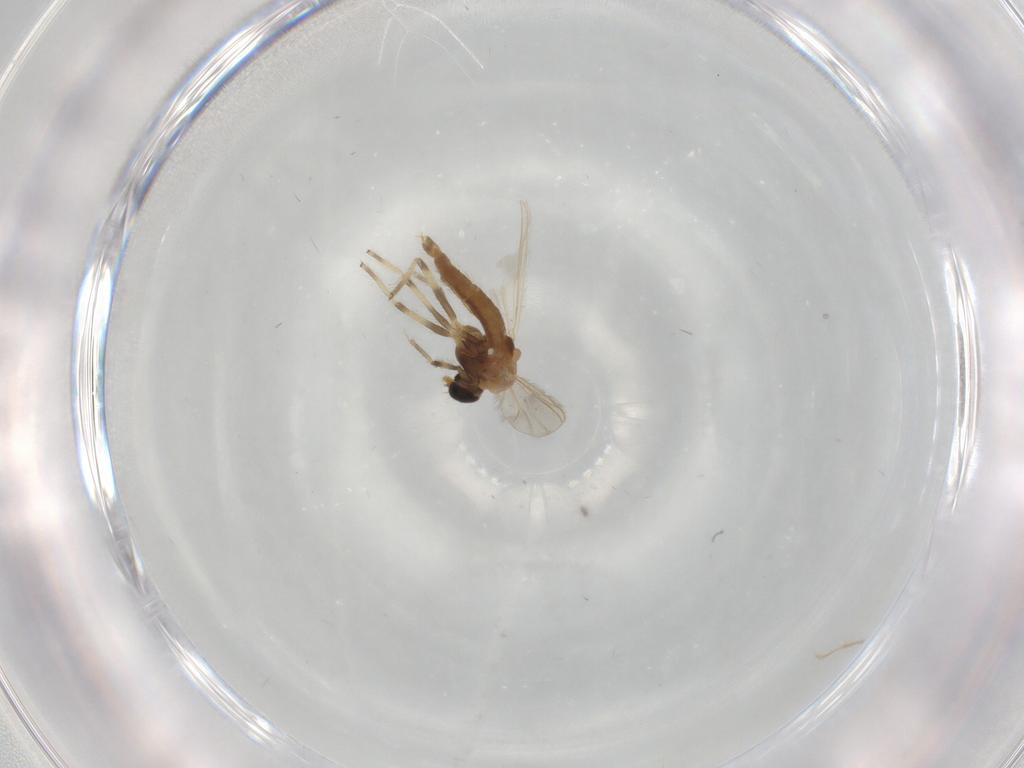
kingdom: Animalia
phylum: Arthropoda
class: Insecta
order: Diptera
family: Chironomidae
